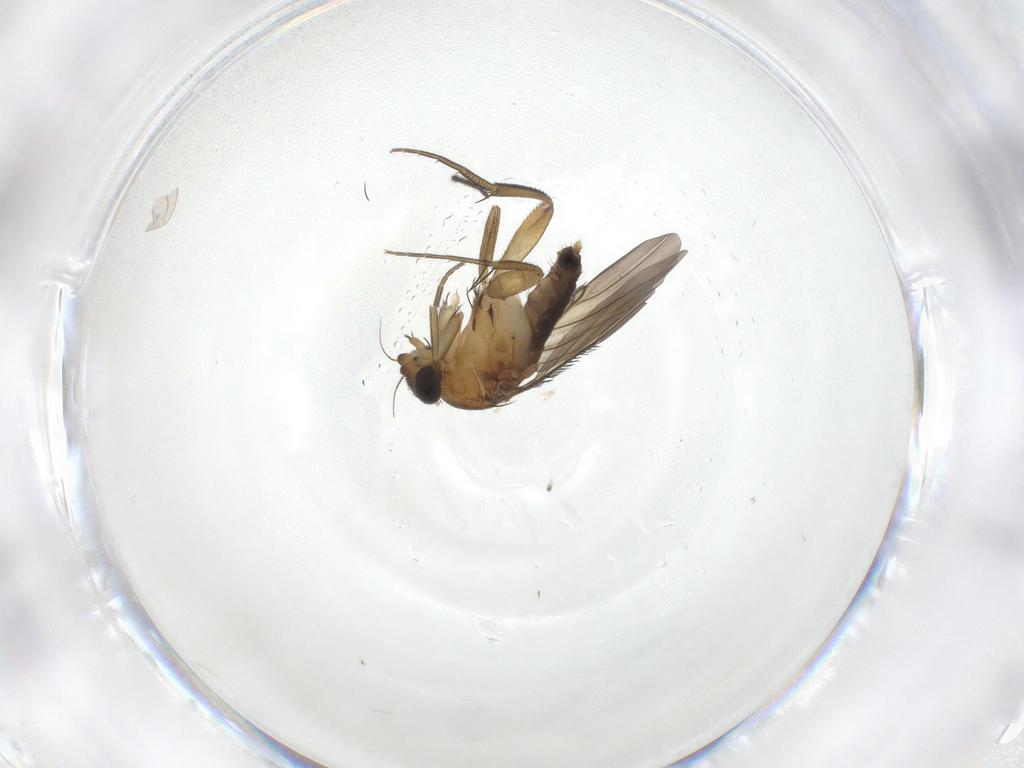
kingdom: Animalia
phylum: Arthropoda
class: Insecta
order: Diptera
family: Phoridae
